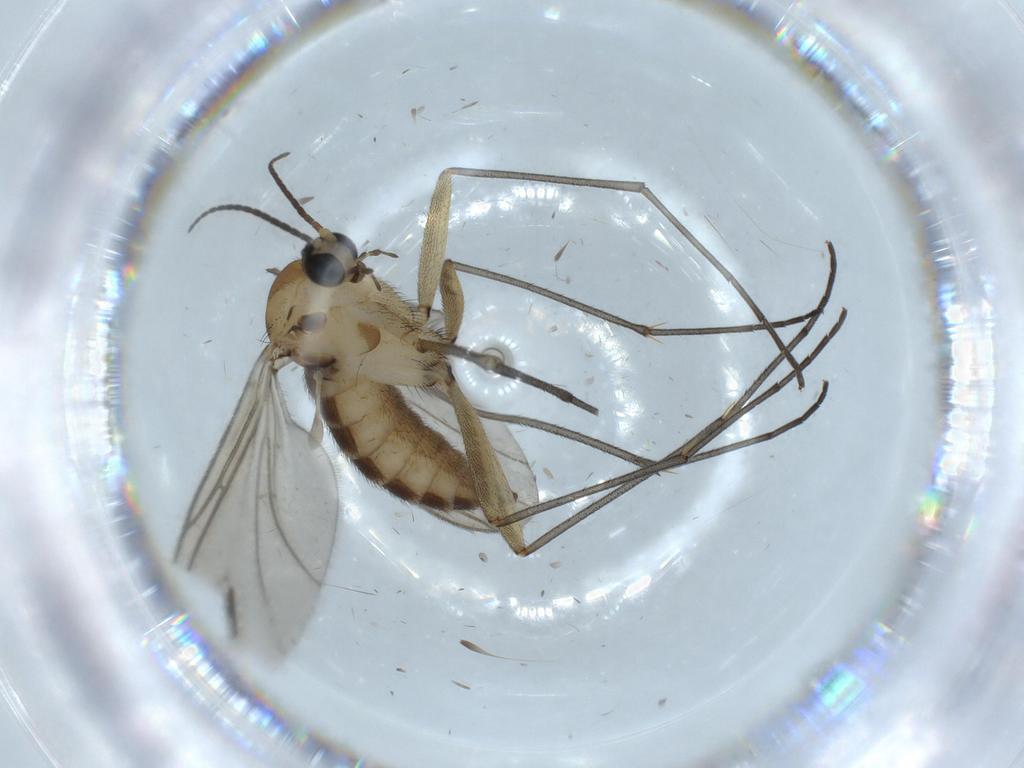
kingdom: Animalia
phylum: Arthropoda
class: Insecta
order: Diptera
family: Sciaridae
